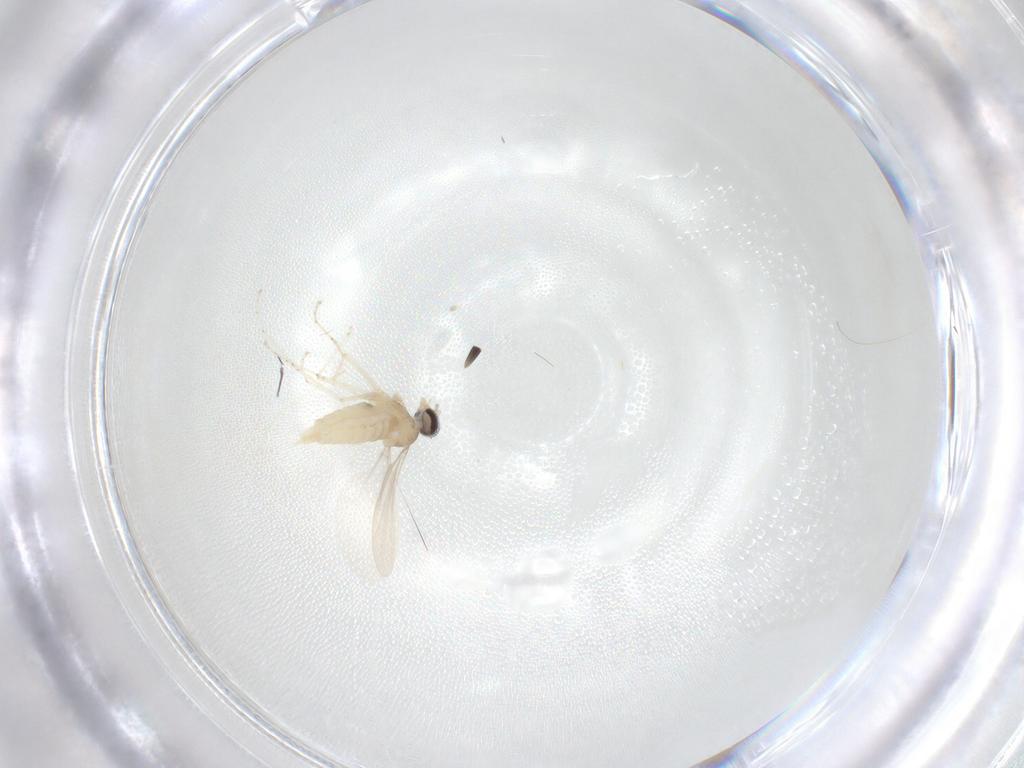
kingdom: Animalia
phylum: Arthropoda
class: Insecta
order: Diptera
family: Cecidomyiidae
